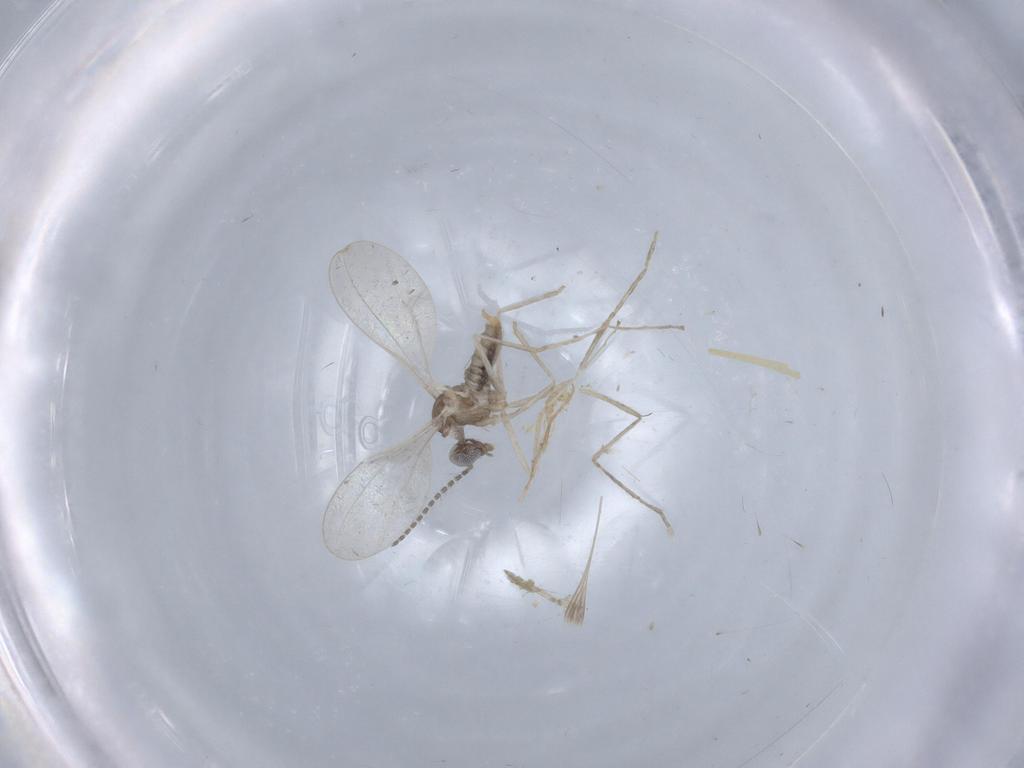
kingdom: Animalia
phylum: Arthropoda
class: Insecta
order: Diptera
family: Cecidomyiidae
